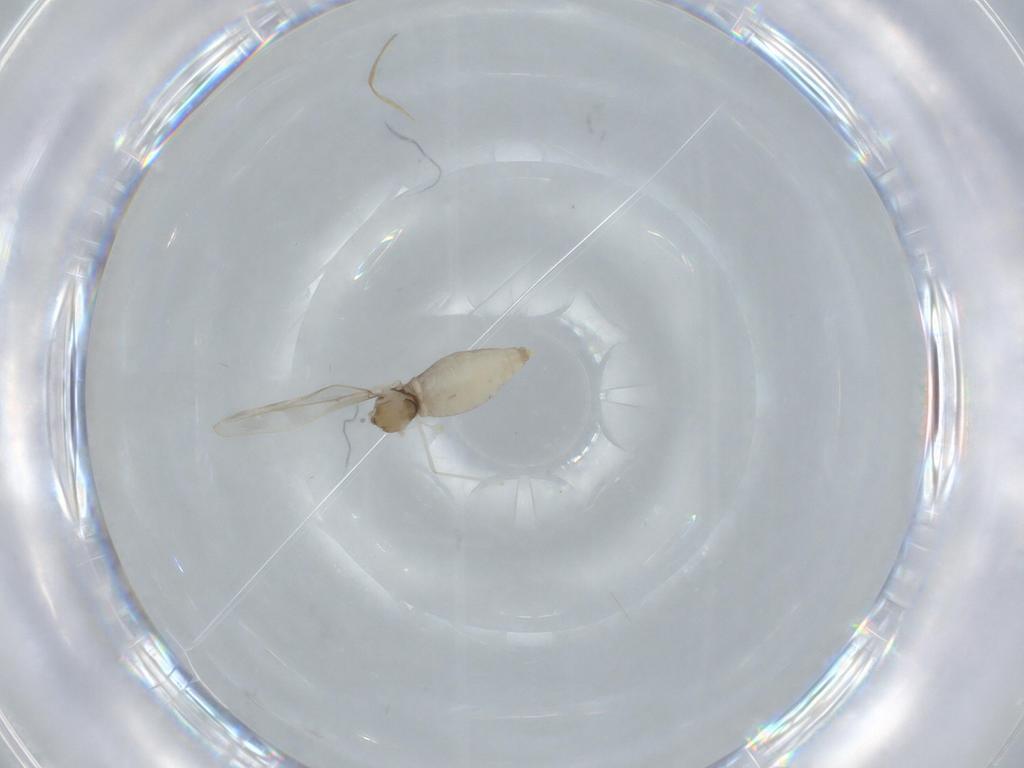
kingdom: Animalia
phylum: Arthropoda
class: Insecta
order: Diptera
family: Cecidomyiidae
